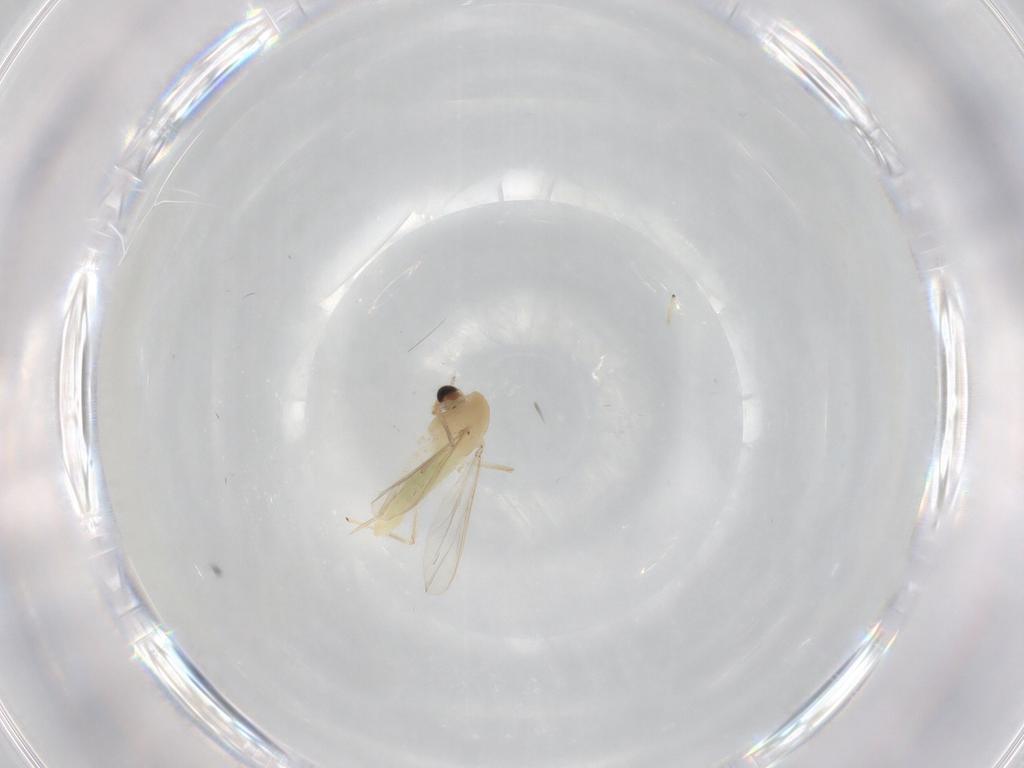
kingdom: Animalia
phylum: Arthropoda
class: Insecta
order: Diptera
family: Chironomidae
